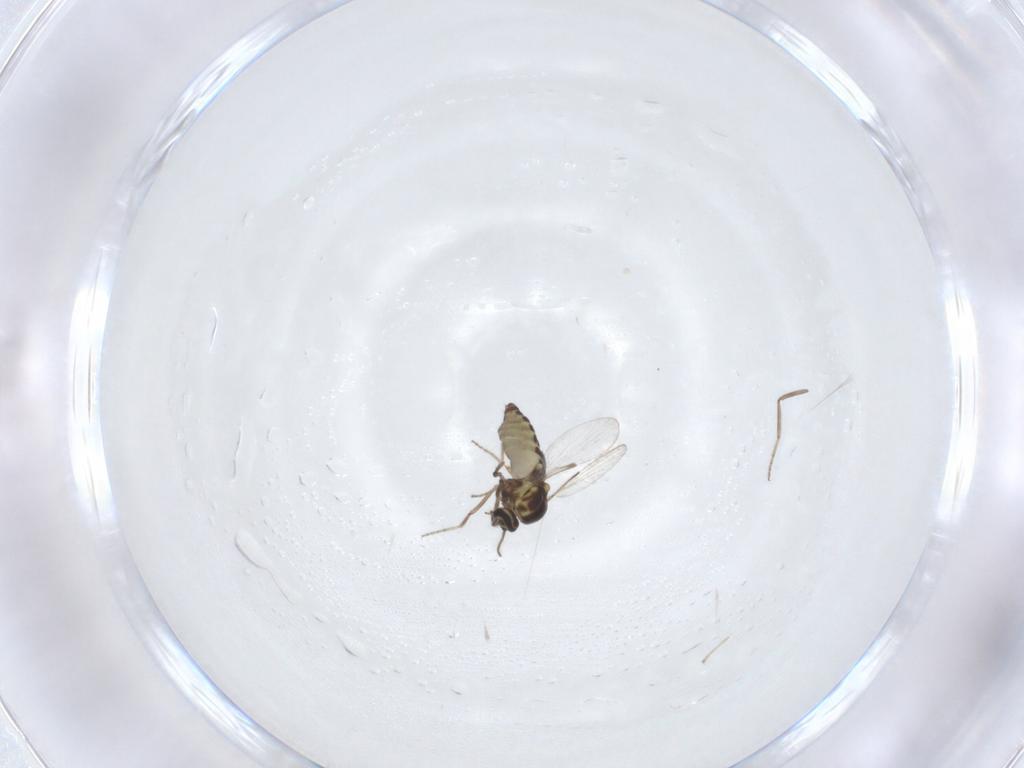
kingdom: Animalia
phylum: Arthropoda
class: Insecta
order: Diptera
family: Ceratopogonidae
